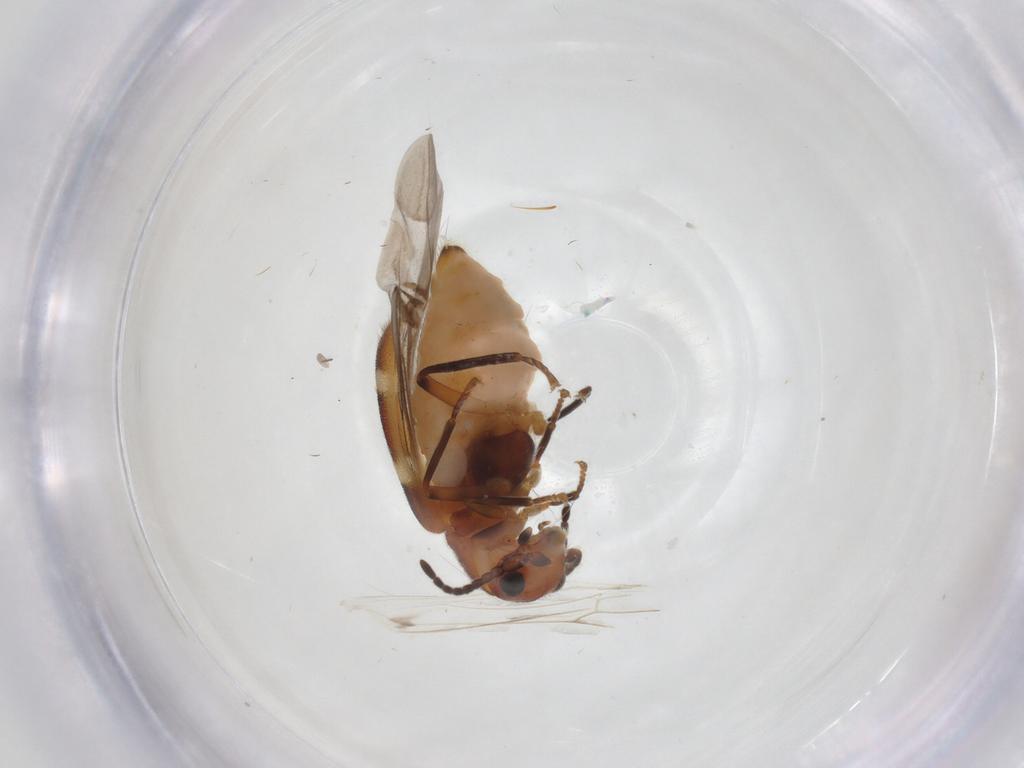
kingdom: Animalia
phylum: Arthropoda
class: Insecta
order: Coleoptera
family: Melyridae
